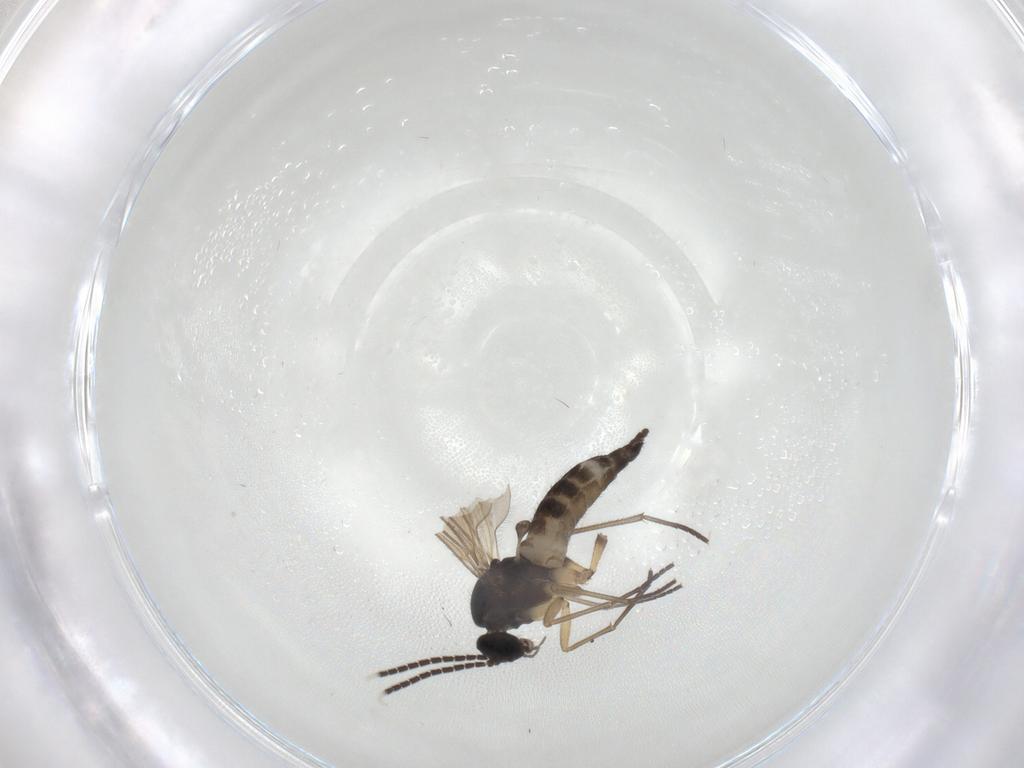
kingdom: Animalia
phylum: Arthropoda
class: Insecta
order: Diptera
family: Sciaridae
